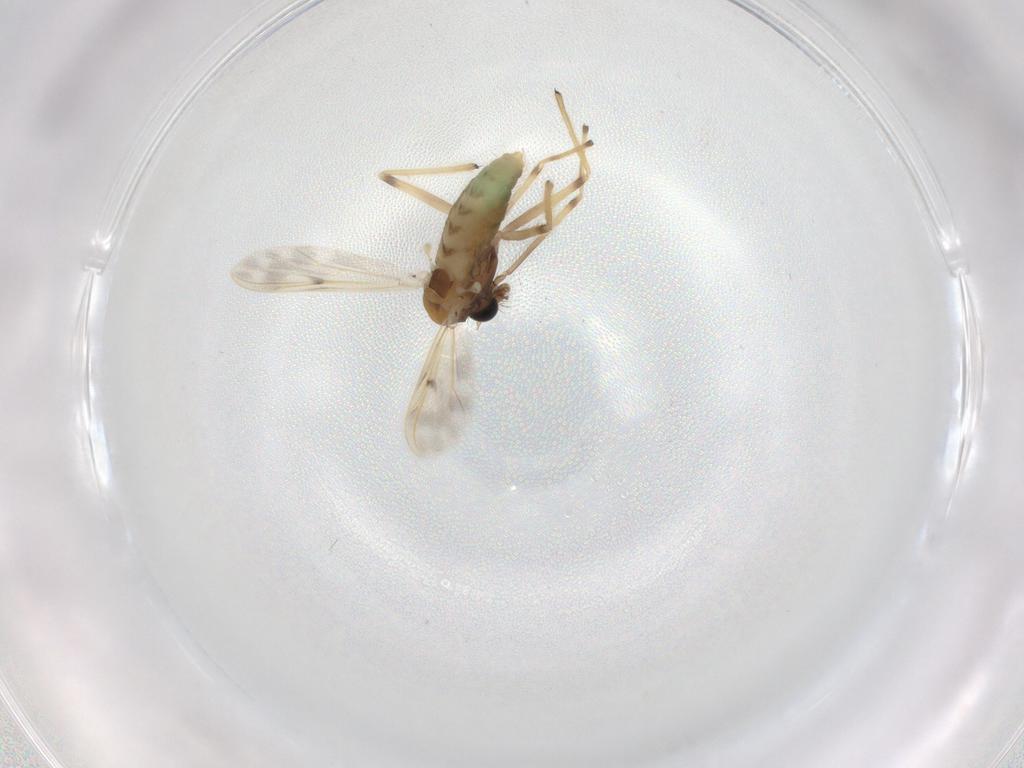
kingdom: Animalia
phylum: Arthropoda
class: Insecta
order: Diptera
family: Chironomidae
